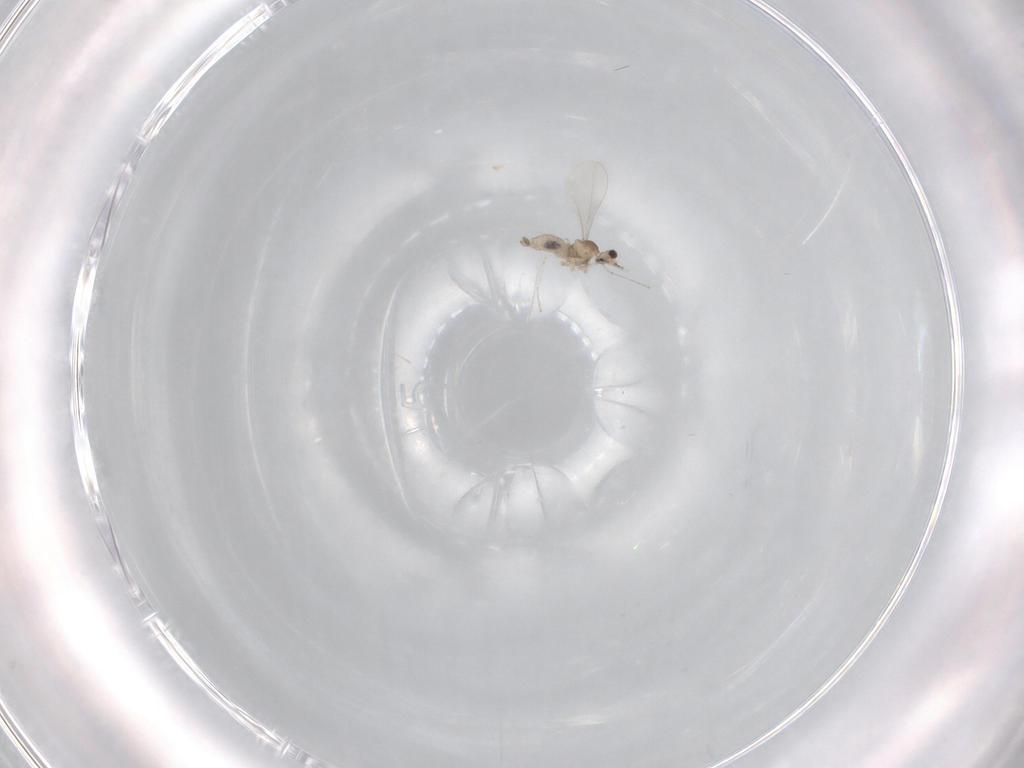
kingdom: Animalia
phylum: Arthropoda
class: Insecta
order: Diptera
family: Cecidomyiidae
